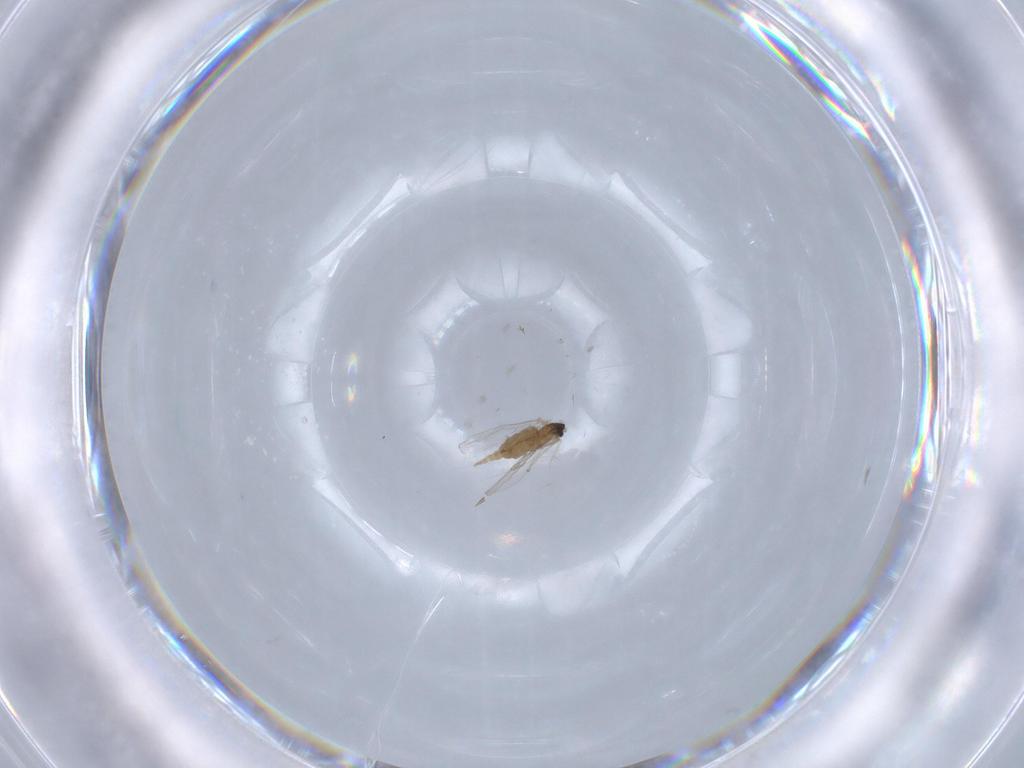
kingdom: Animalia
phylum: Arthropoda
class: Insecta
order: Diptera
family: Cecidomyiidae
